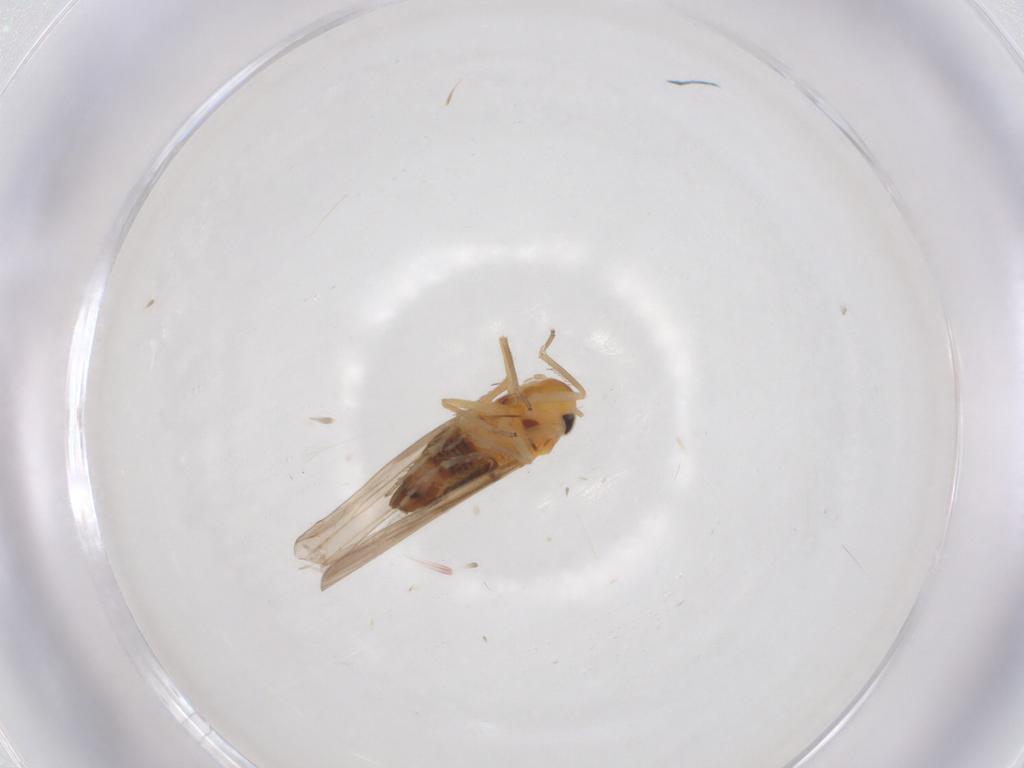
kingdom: Animalia
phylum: Arthropoda
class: Insecta
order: Hemiptera
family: Cicadellidae
